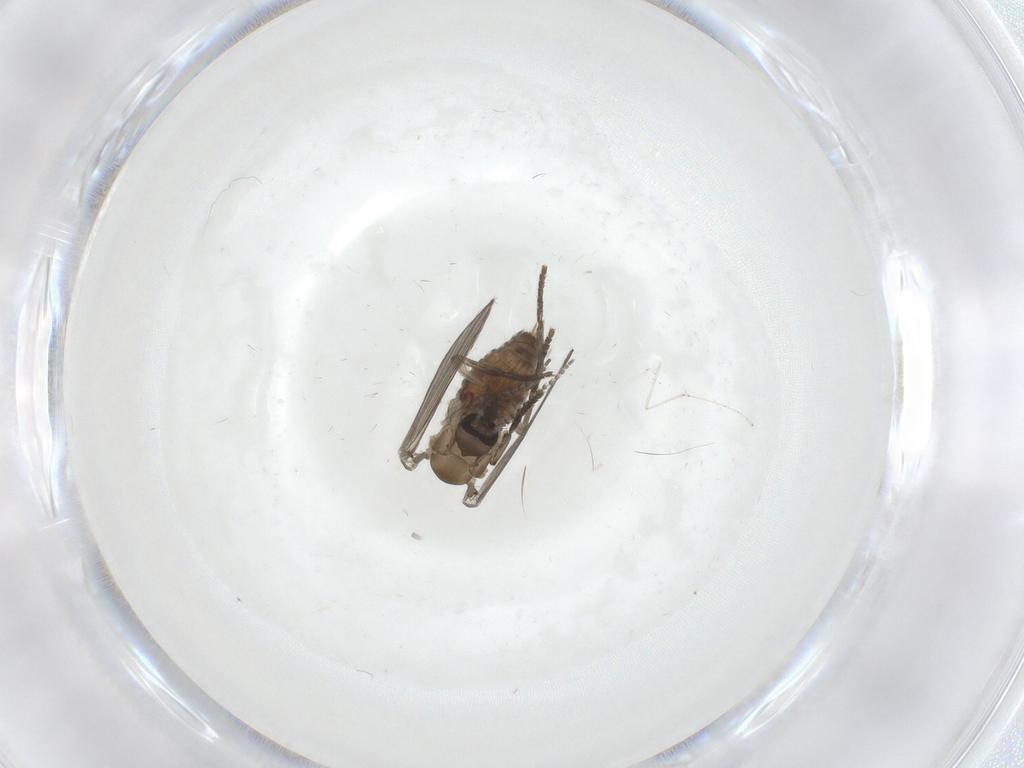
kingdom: Animalia
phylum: Arthropoda
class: Insecta
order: Diptera
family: Psychodidae
